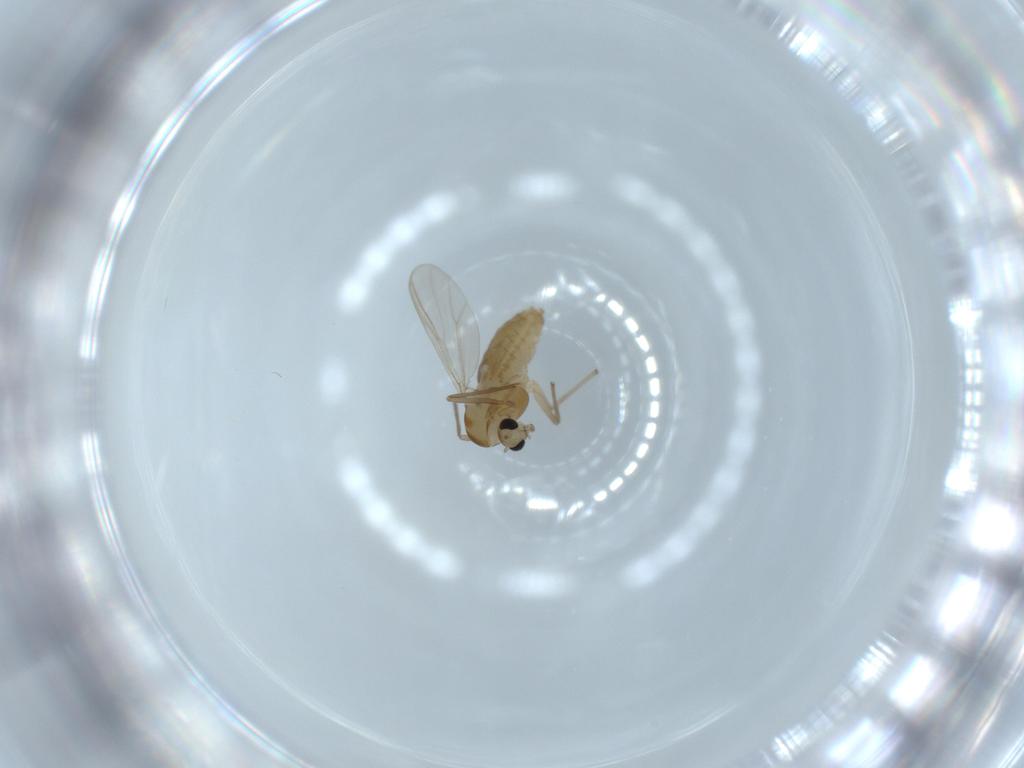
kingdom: Animalia
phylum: Arthropoda
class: Insecta
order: Diptera
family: Chironomidae
